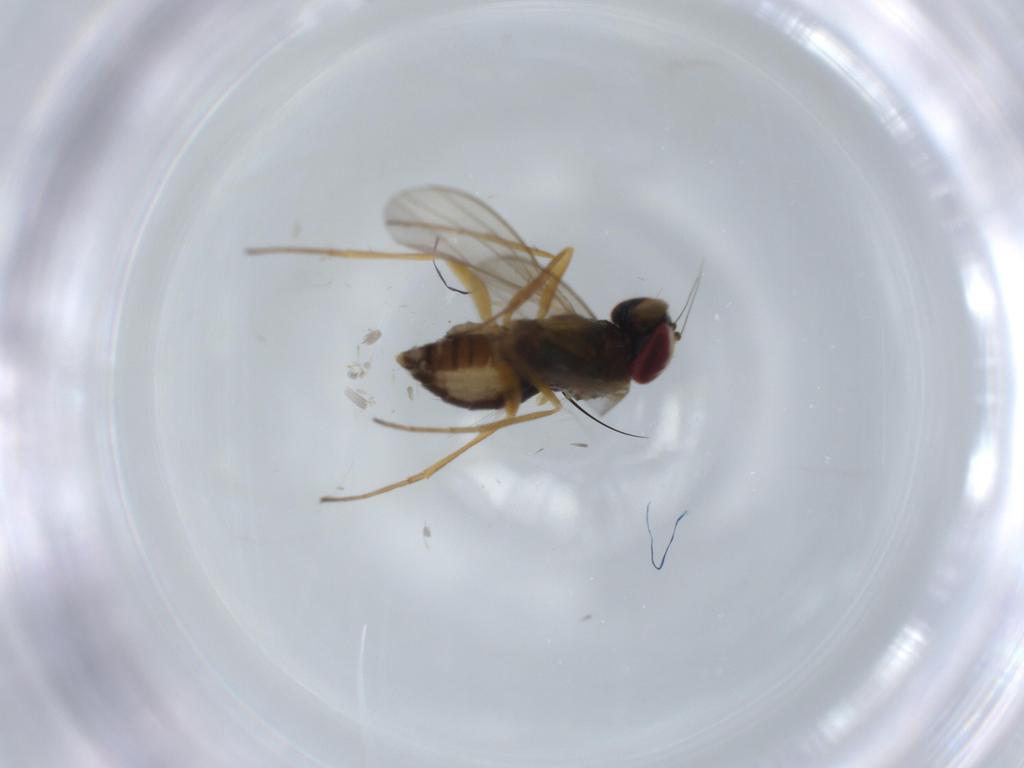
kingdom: Animalia
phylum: Arthropoda
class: Insecta
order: Diptera
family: Dolichopodidae
